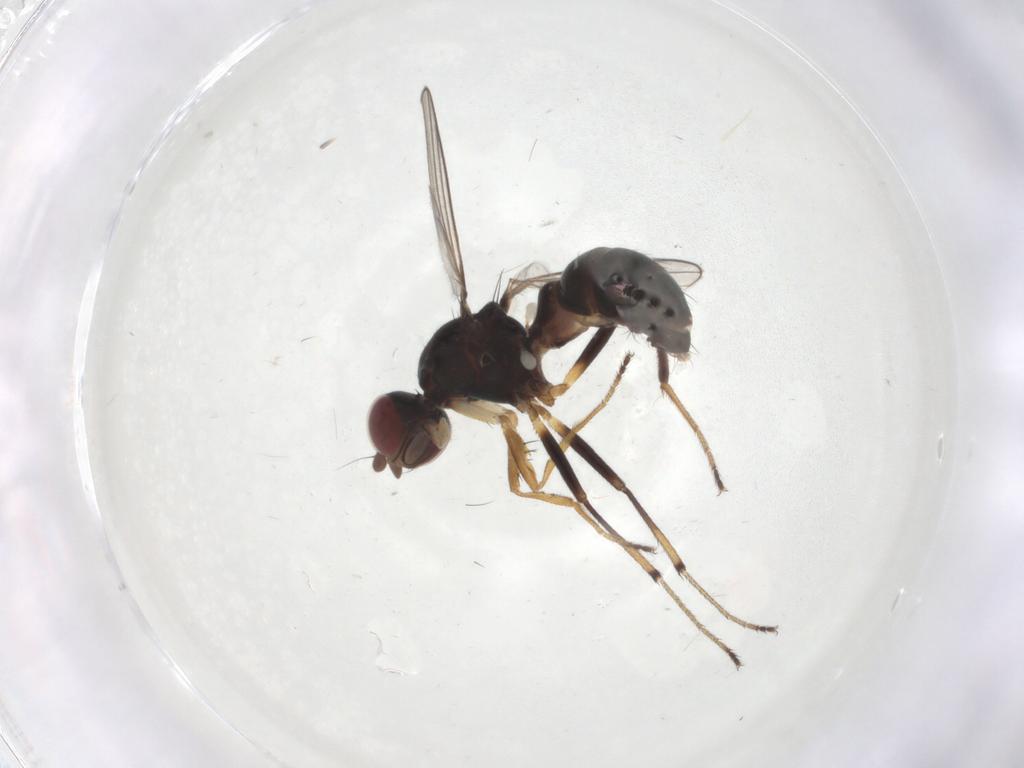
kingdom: Animalia
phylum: Arthropoda
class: Insecta
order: Diptera
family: Sepsidae
